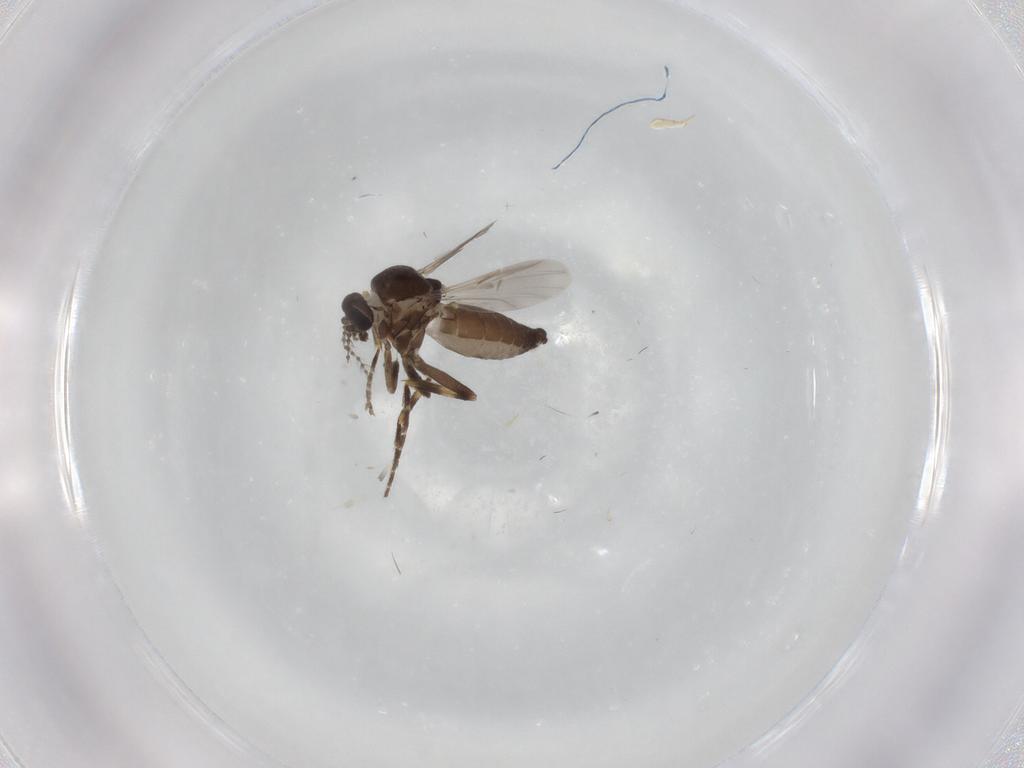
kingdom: Animalia
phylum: Arthropoda
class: Insecta
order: Diptera
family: Ceratopogonidae
